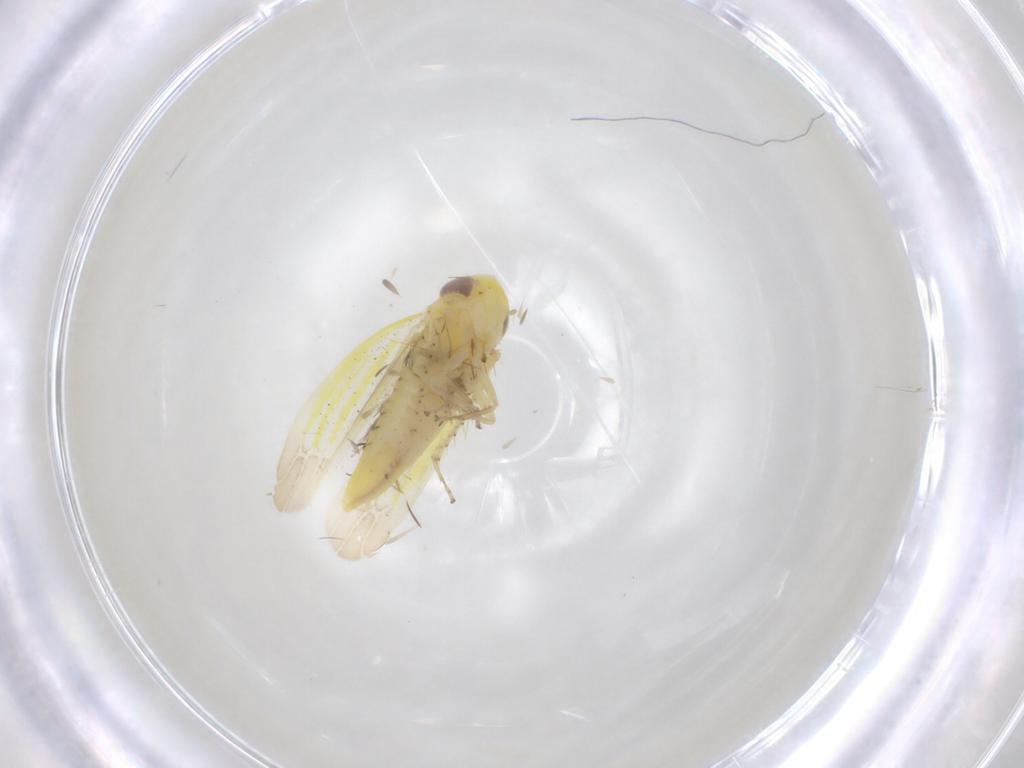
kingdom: Animalia
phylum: Arthropoda
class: Insecta
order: Hemiptera
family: Cicadellidae
